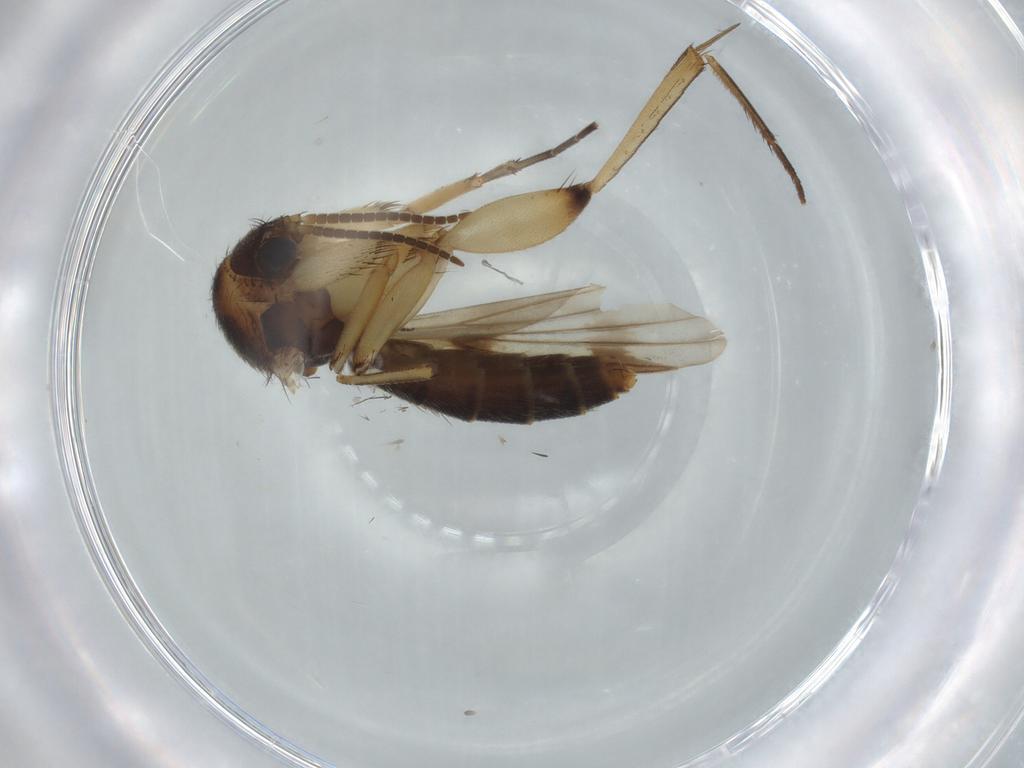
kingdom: Animalia
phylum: Arthropoda
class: Insecta
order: Diptera
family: Mycetophilidae
